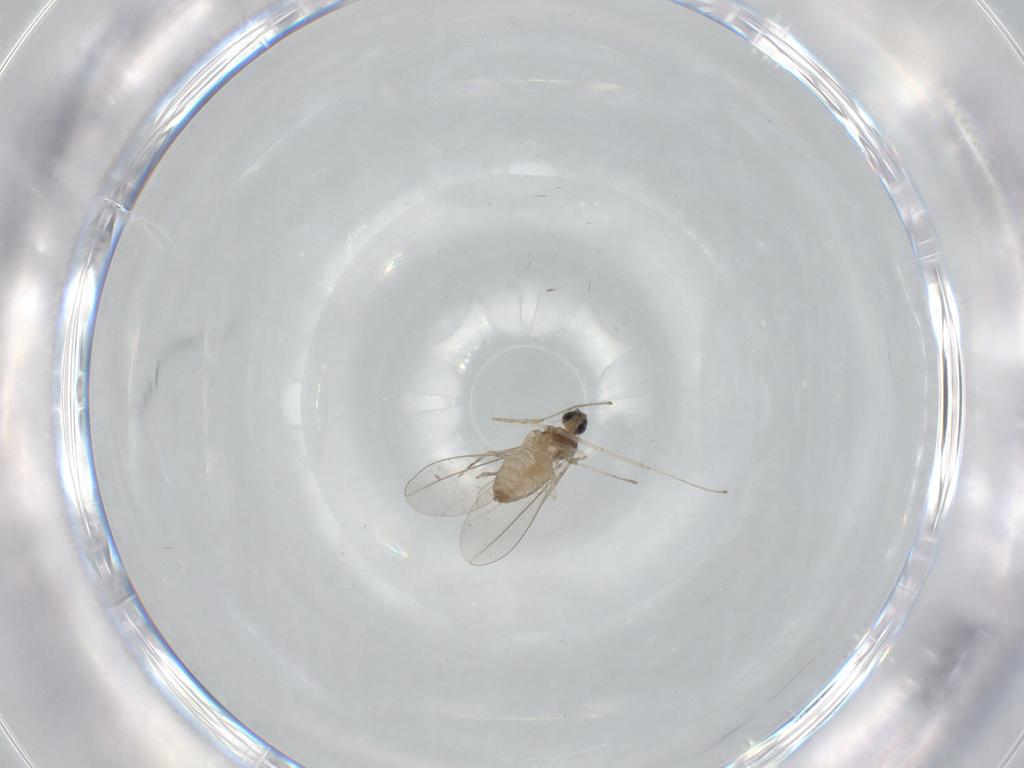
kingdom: Animalia
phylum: Arthropoda
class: Insecta
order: Diptera
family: Cecidomyiidae
